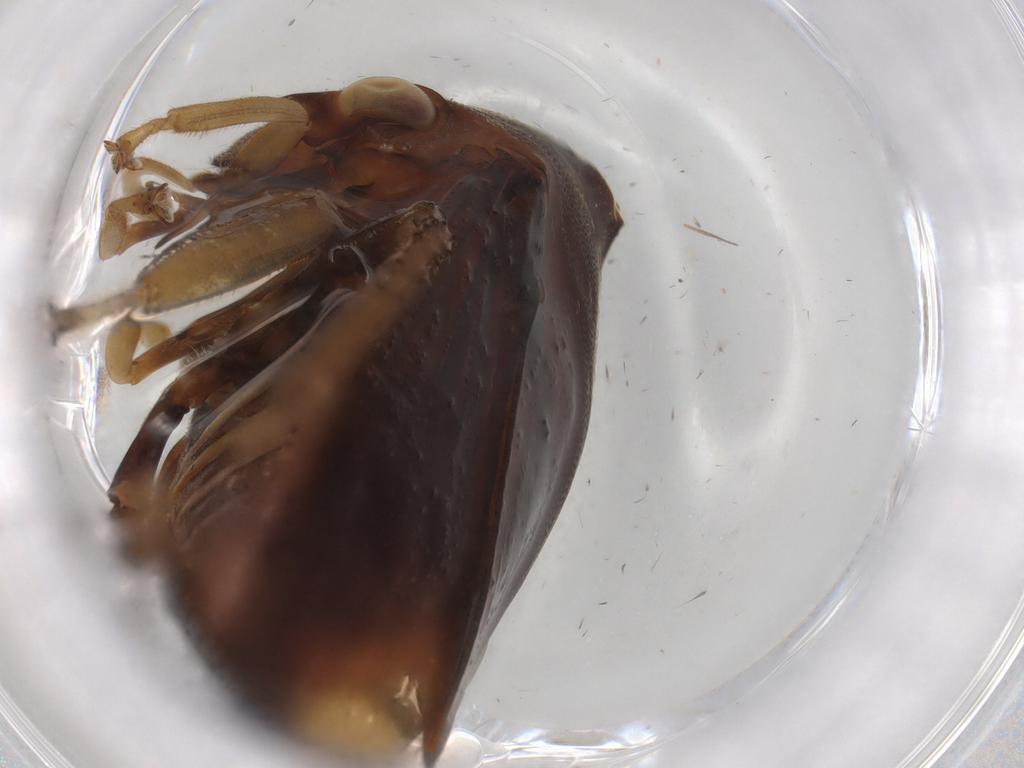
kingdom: Animalia
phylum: Arthropoda
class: Insecta
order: Hemiptera
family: Membracidae
